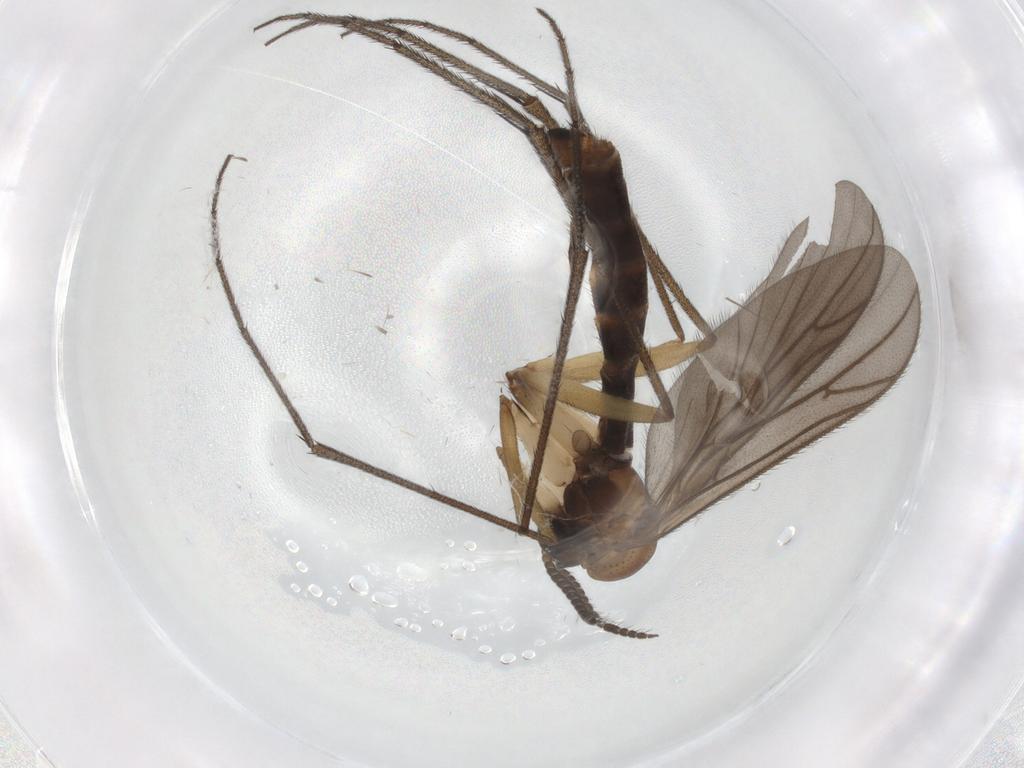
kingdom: Animalia
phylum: Arthropoda
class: Insecta
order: Diptera
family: Ditomyiidae
